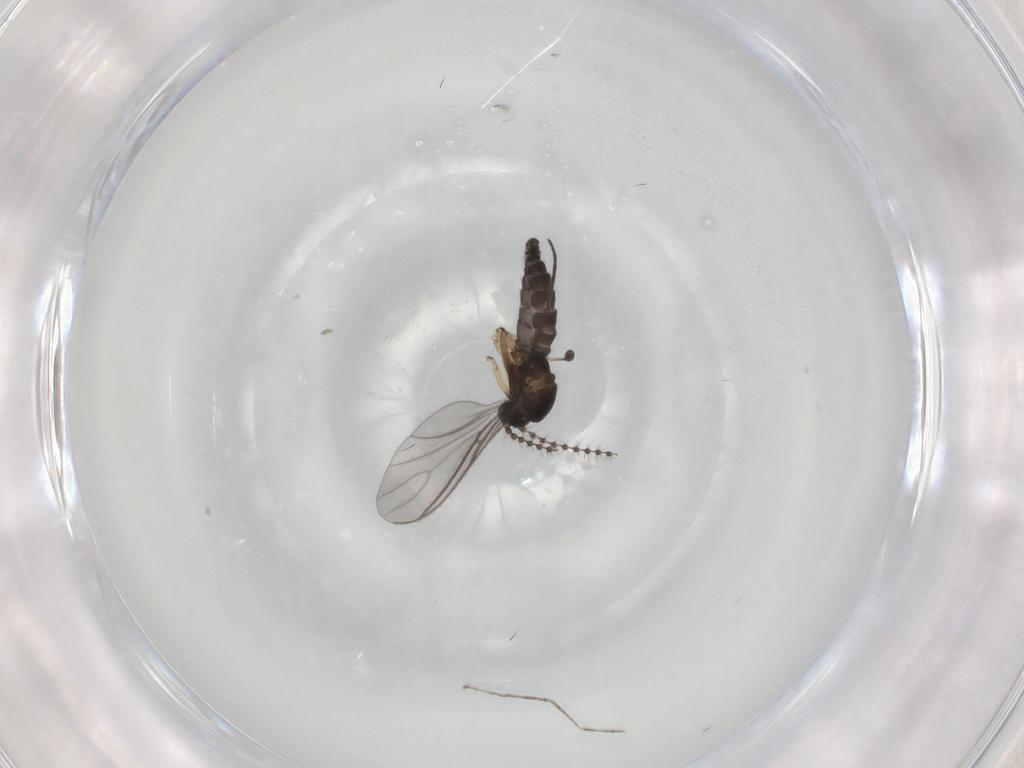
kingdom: Animalia
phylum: Arthropoda
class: Insecta
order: Diptera
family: Sciaridae
